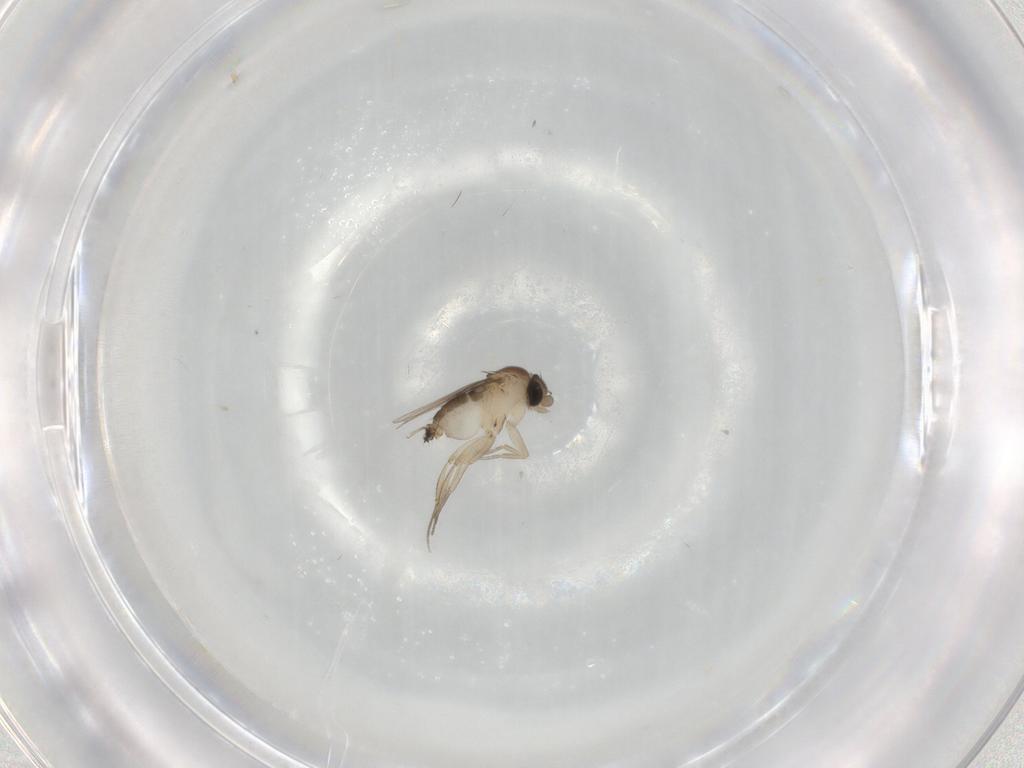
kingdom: Animalia
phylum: Arthropoda
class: Insecta
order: Diptera
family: Phoridae
